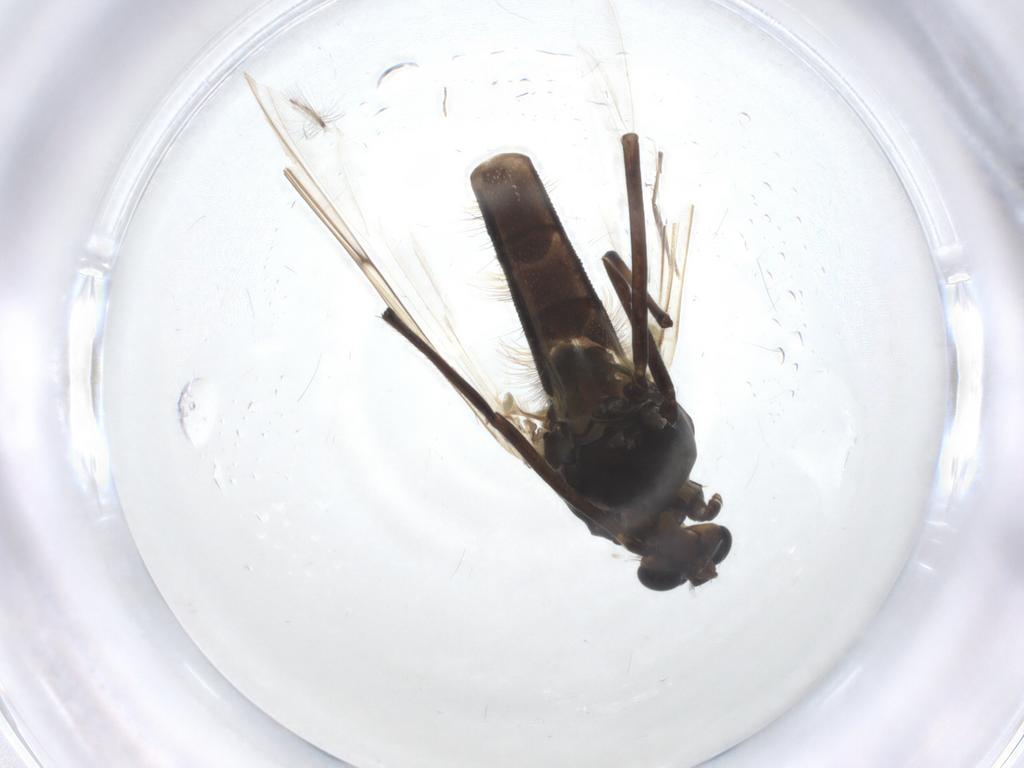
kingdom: Animalia
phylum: Arthropoda
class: Insecta
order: Diptera
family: Chironomidae
